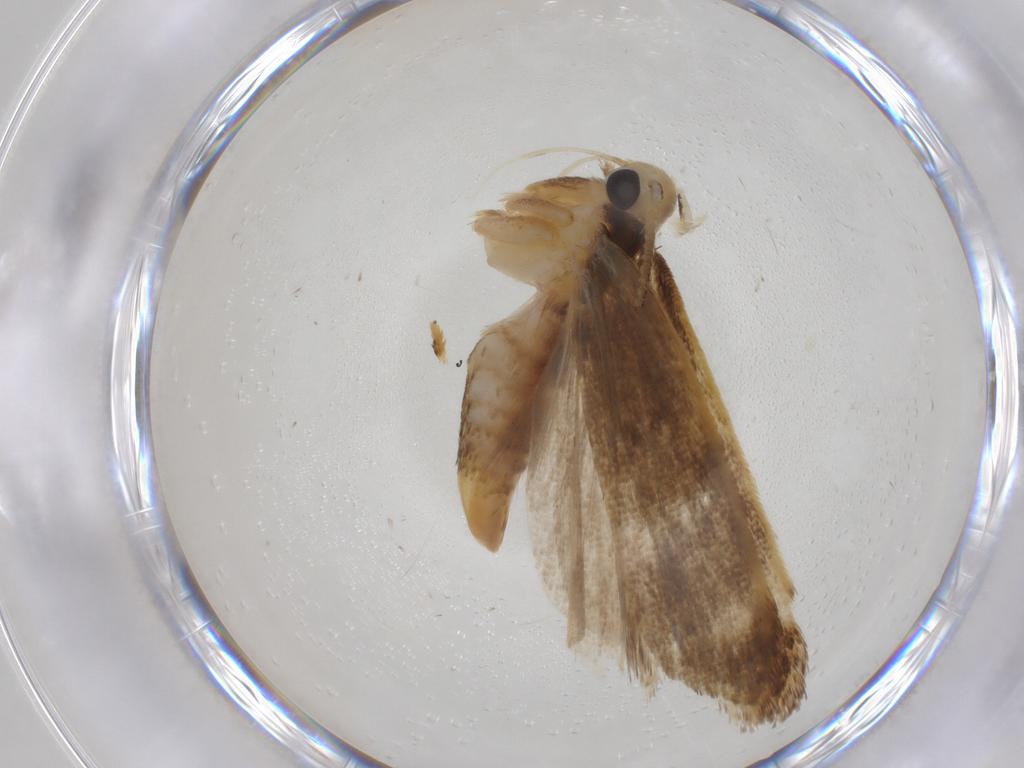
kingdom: Animalia
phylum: Arthropoda
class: Insecta
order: Lepidoptera
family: Gelechiidae
